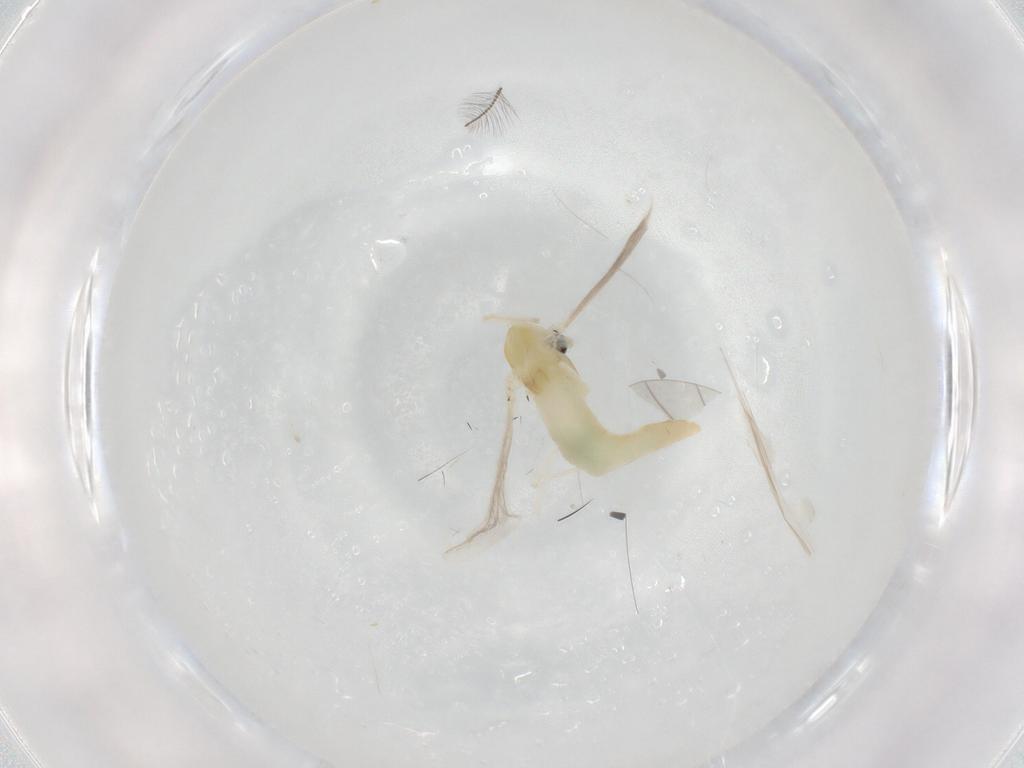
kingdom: Animalia
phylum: Arthropoda
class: Insecta
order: Diptera
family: Chironomidae
